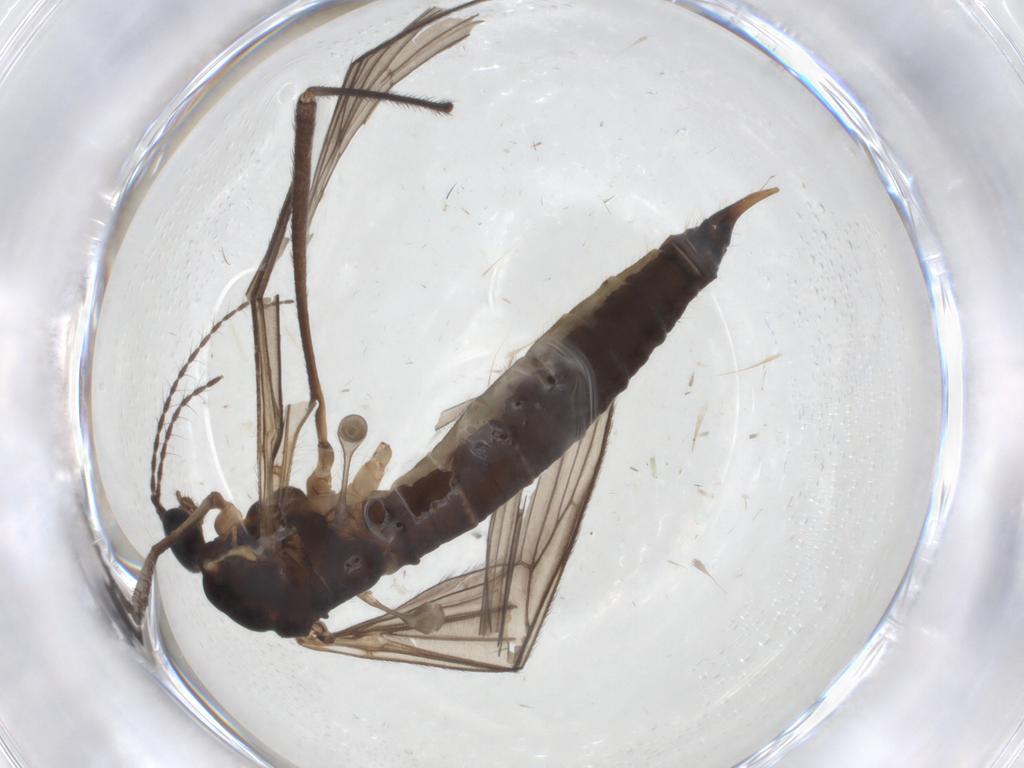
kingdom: Animalia
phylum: Arthropoda
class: Insecta
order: Diptera
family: Limoniidae
